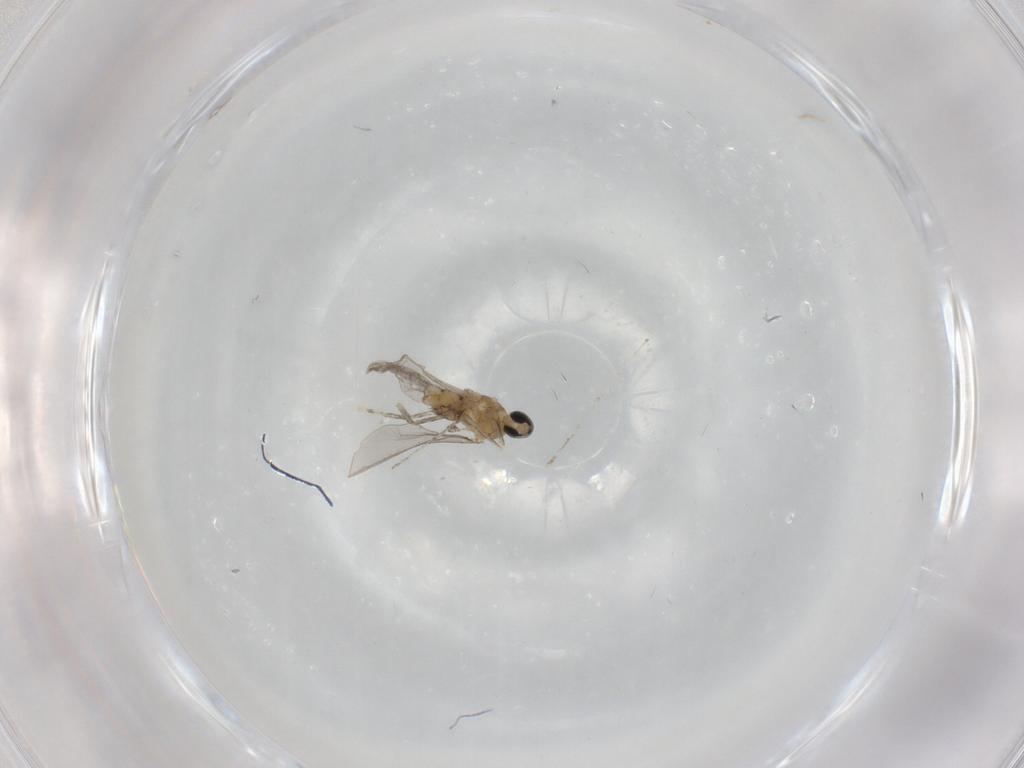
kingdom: Animalia
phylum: Arthropoda
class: Insecta
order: Diptera
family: Cecidomyiidae
